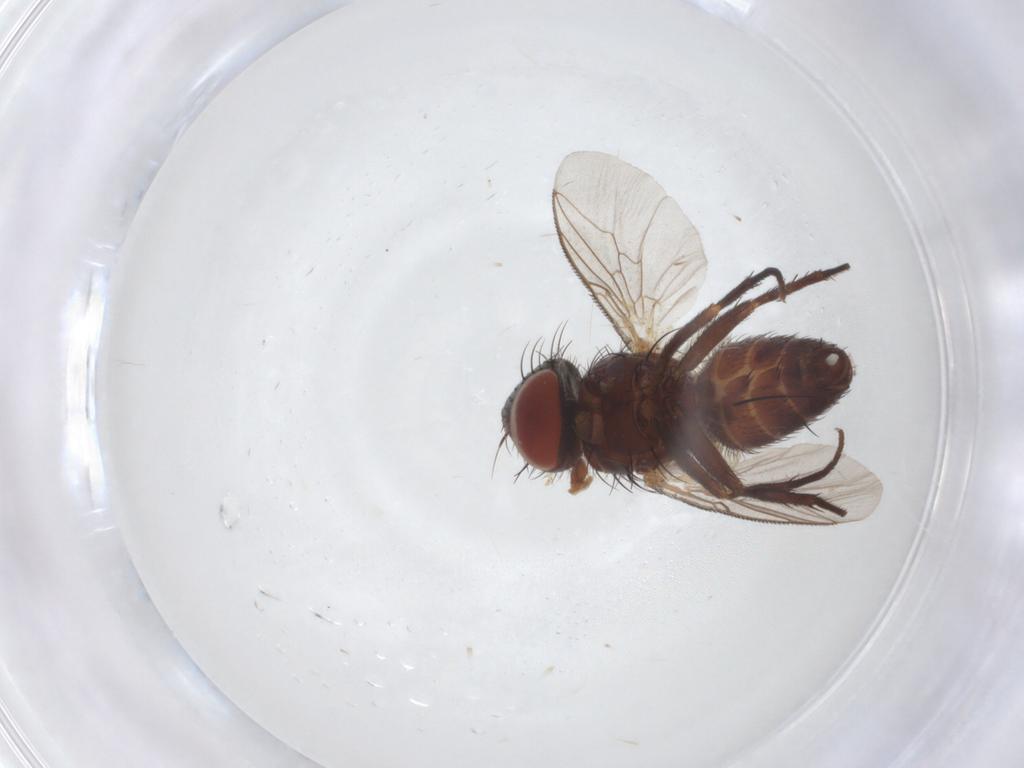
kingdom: Animalia
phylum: Arthropoda
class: Insecta
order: Diptera
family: Sarcophagidae
